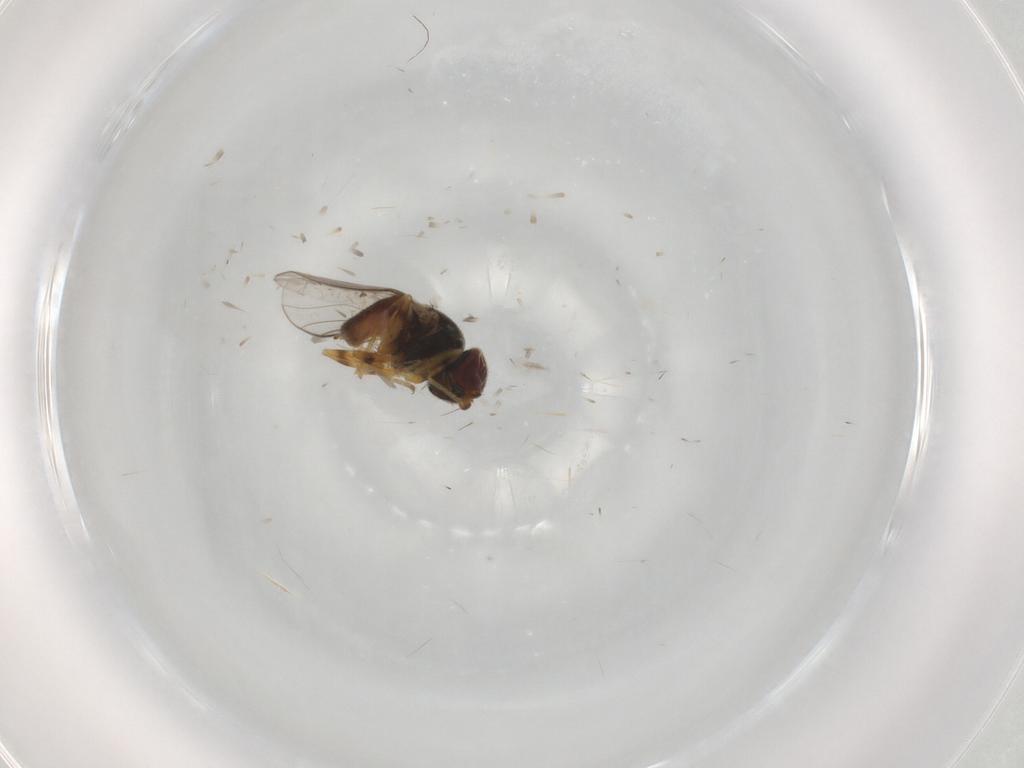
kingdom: Animalia
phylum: Arthropoda
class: Insecta
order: Diptera
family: Chloropidae
